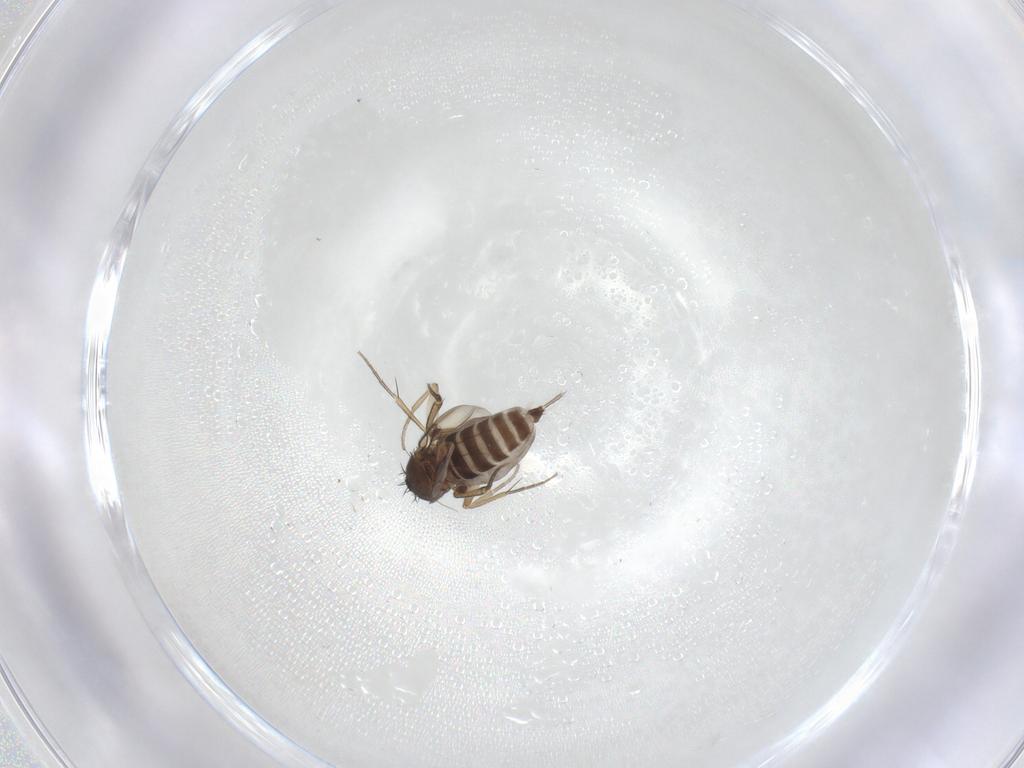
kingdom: Animalia
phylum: Arthropoda
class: Insecta
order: Diptera
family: Phoridae
